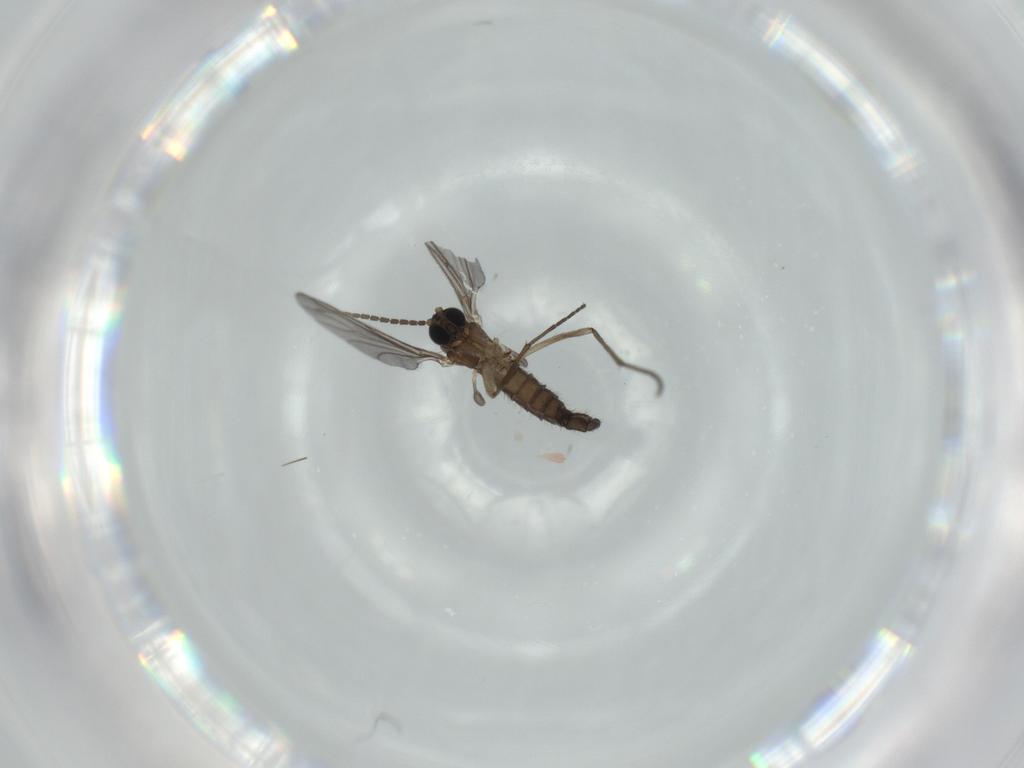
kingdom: Animalia
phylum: Arthropoda
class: Insecta
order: Diptera
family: Sciaridae
